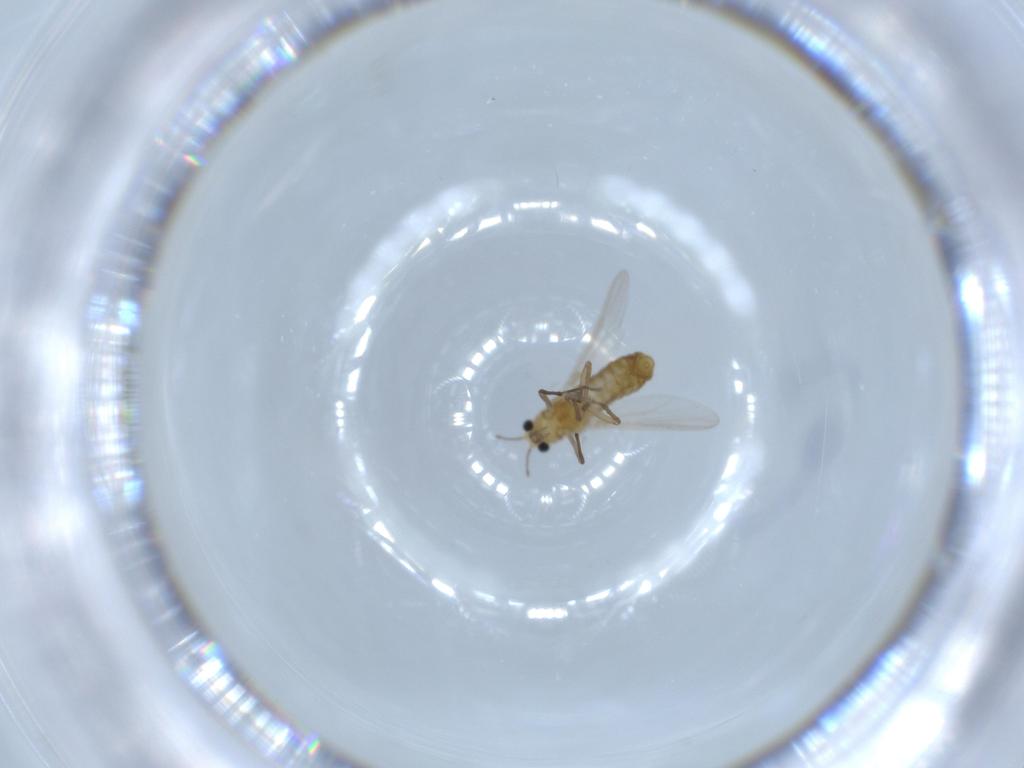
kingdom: Animalia
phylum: Arthropoda
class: Insecta
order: Diptera
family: Chironomidae
